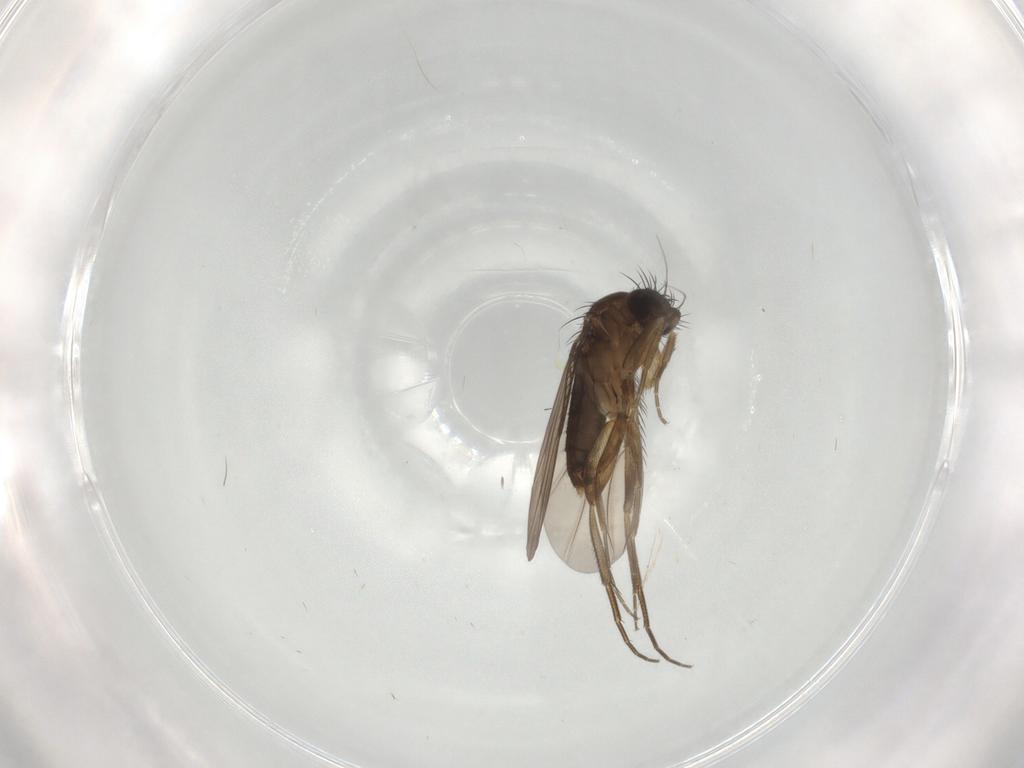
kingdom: Animalia
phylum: Arthropoda
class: Insecta
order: Diptera
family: Phoridae
